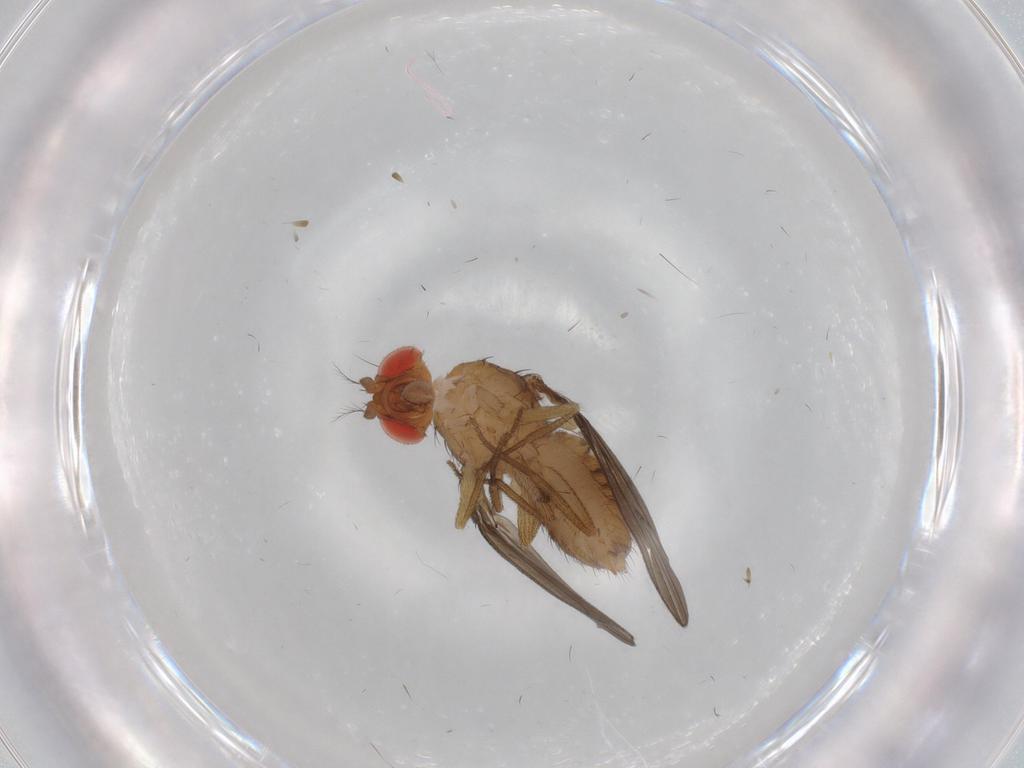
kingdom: Animalia
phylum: Arthropoda
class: Insecta
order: Diptera
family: Drosophilidae
